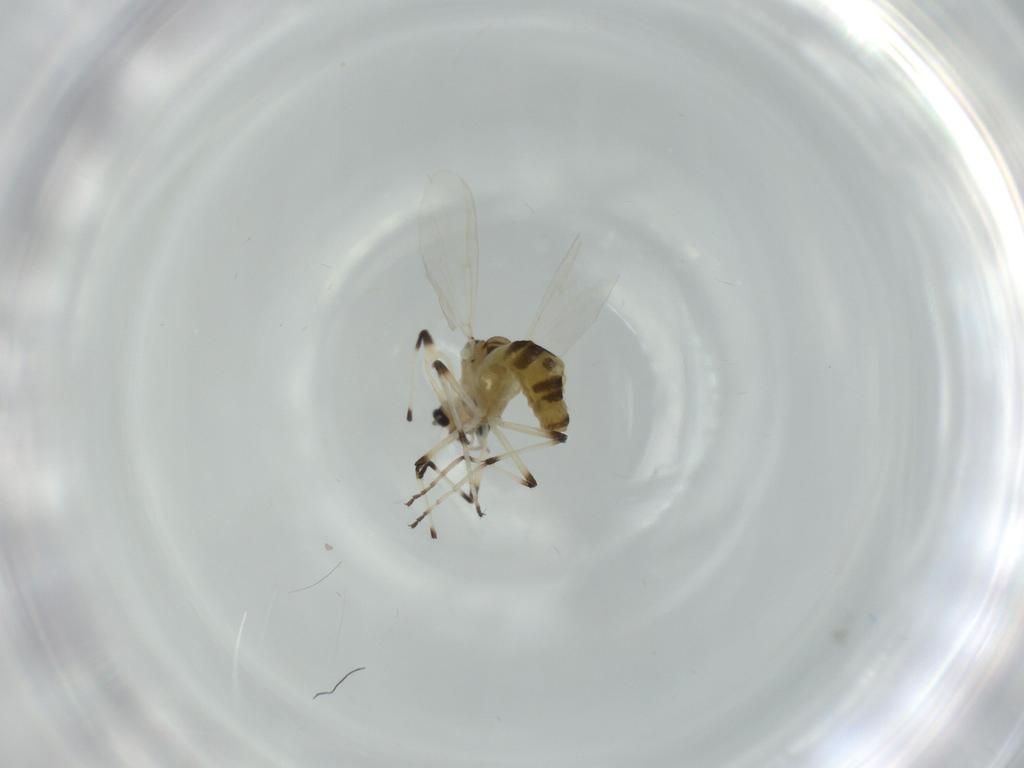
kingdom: Animalia
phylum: Arthropoda
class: Insecta
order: Diptera
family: Chironomidae
